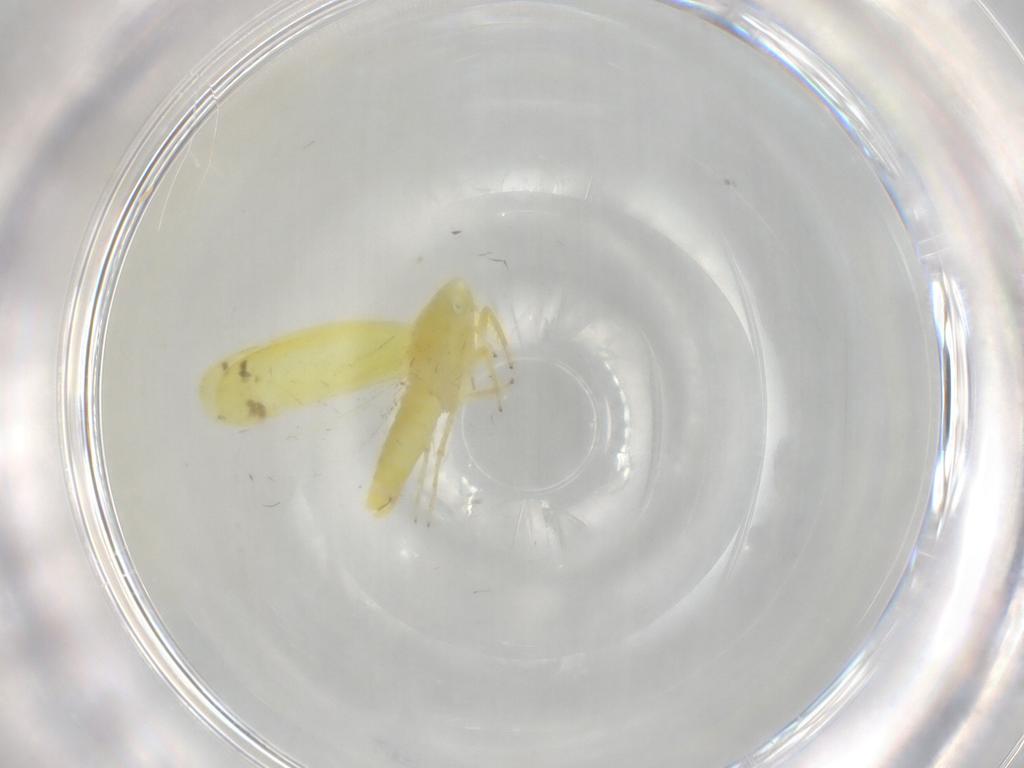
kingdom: Animalia
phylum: Arthropoda
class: Insecta
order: Hemiptera
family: Cicadellidae
